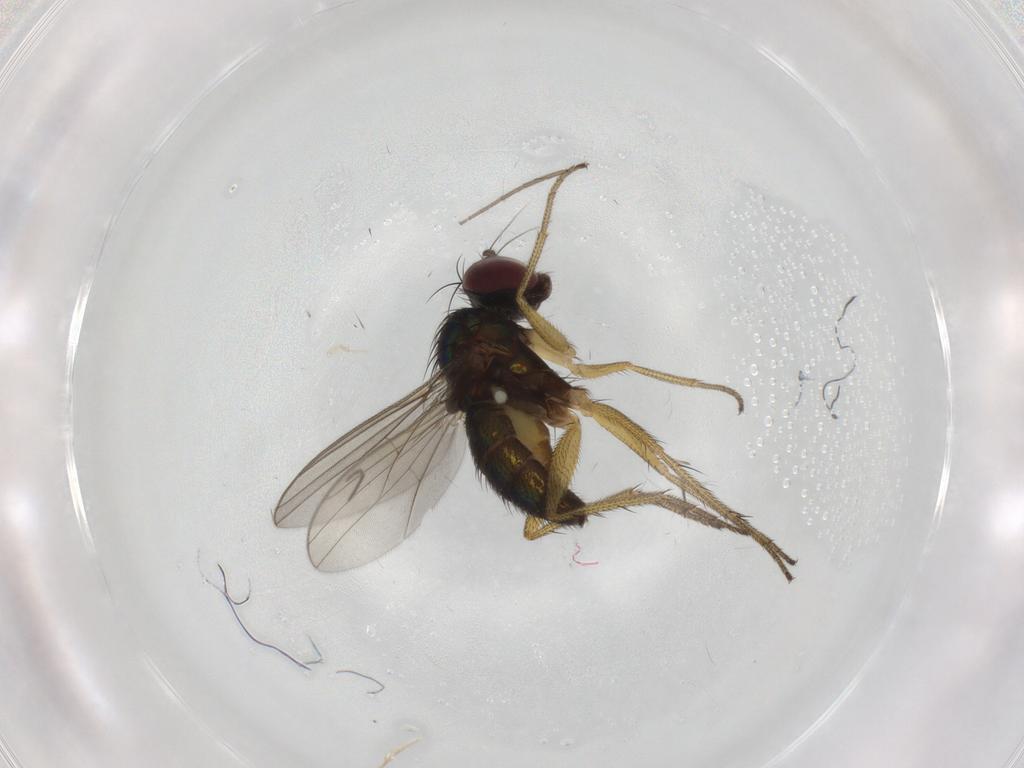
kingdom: Animalia
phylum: Arthropoda
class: Insecta
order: Diptera
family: Chironomidae
